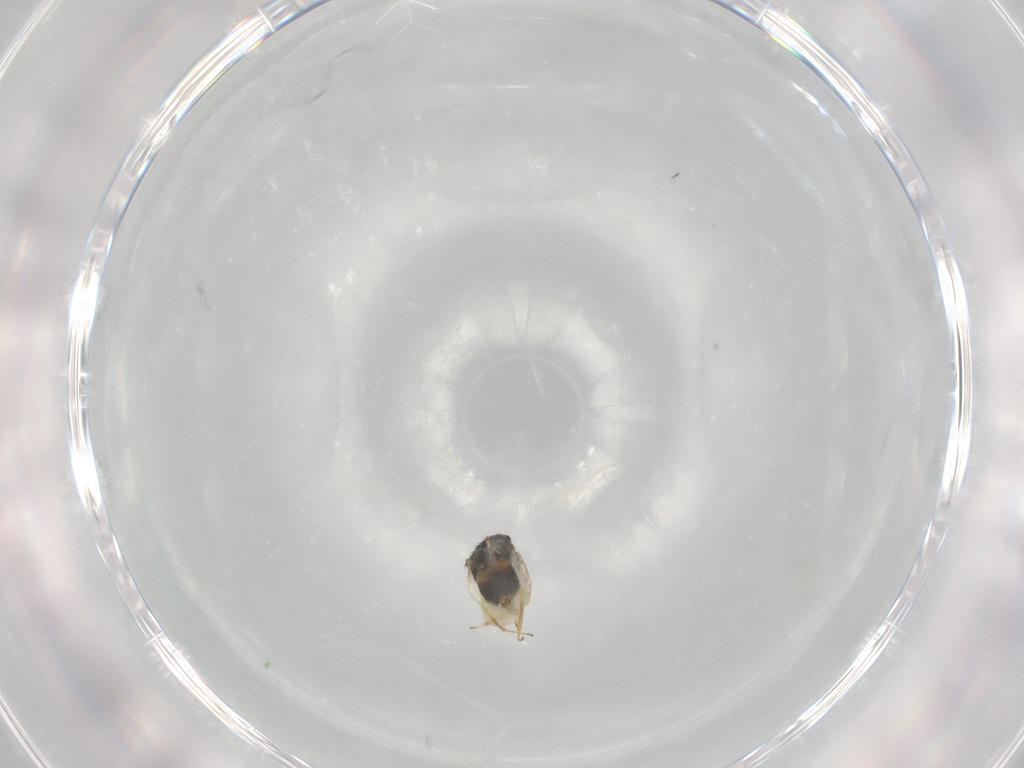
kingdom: Animalia
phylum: Arthropoda
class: Insecta
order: Hymenoptera
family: Aphelinidae
